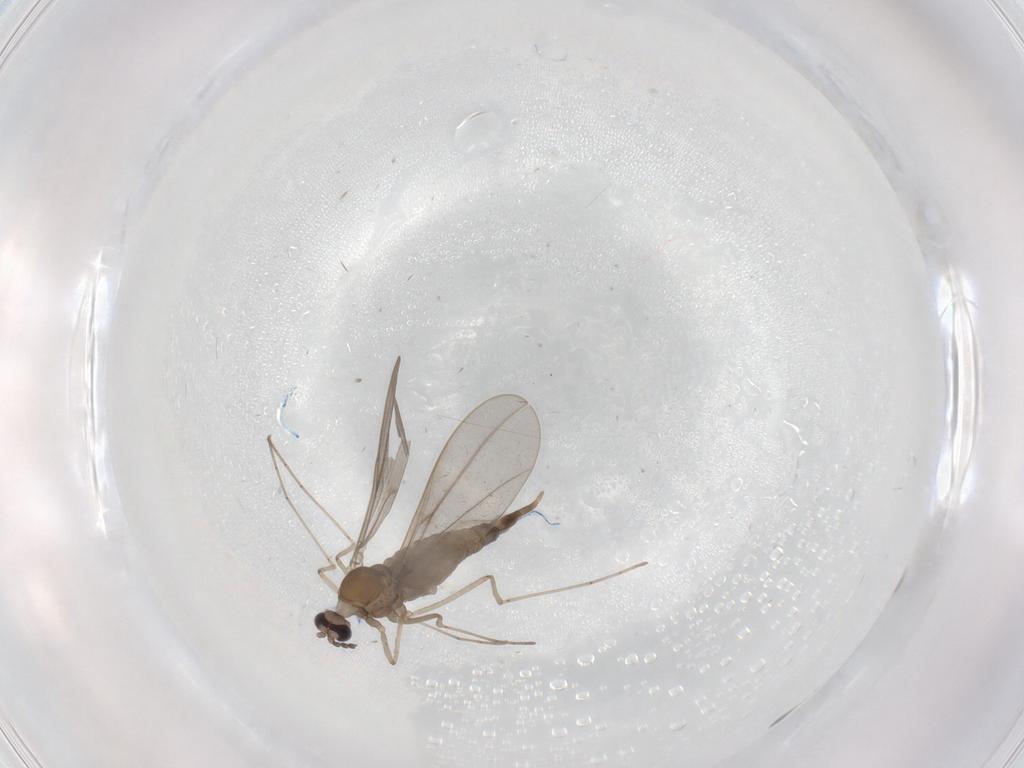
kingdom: Animalia
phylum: Arthropoda
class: Insecta
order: Diptera
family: Cecidomyiidae
